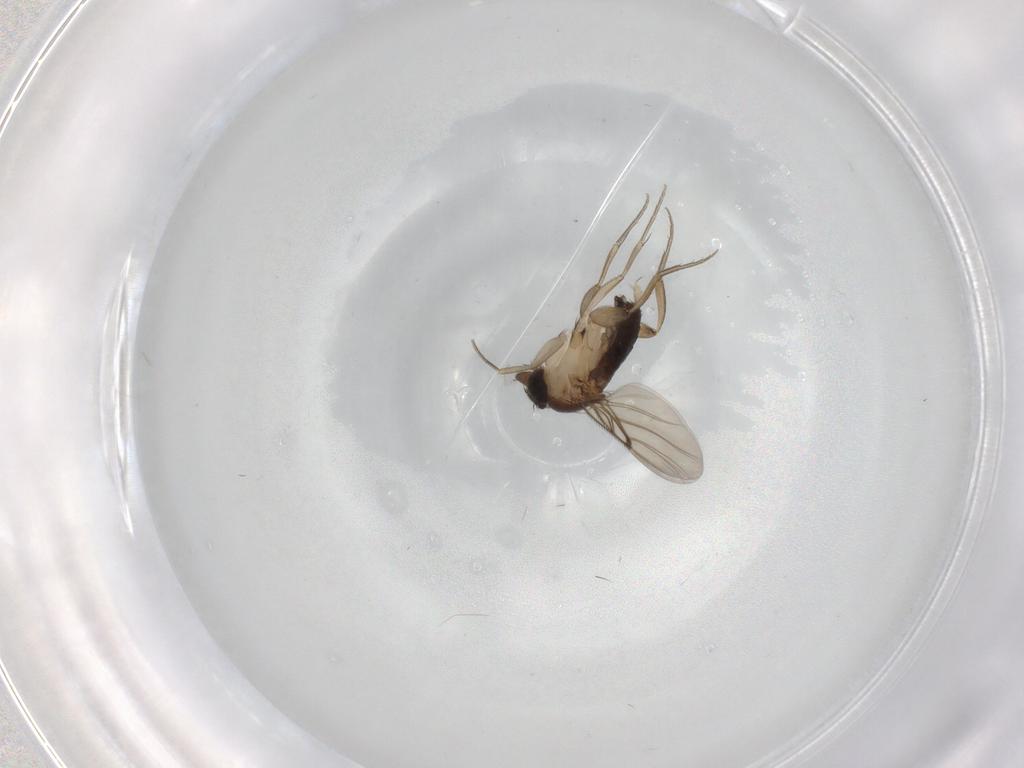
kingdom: Animalia
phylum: Arthropoda
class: Insecta
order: Diptera
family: Phoridae
